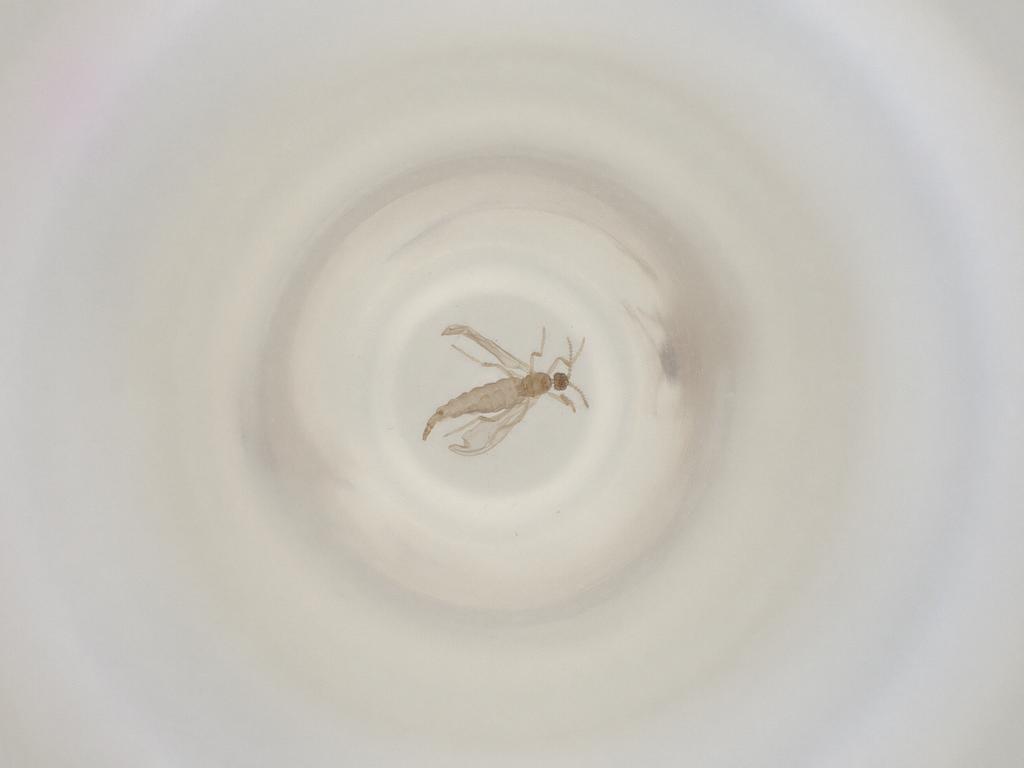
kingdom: Animalia
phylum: Arthropoda
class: Insecta
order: Diptera
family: Cecidomyiidae
